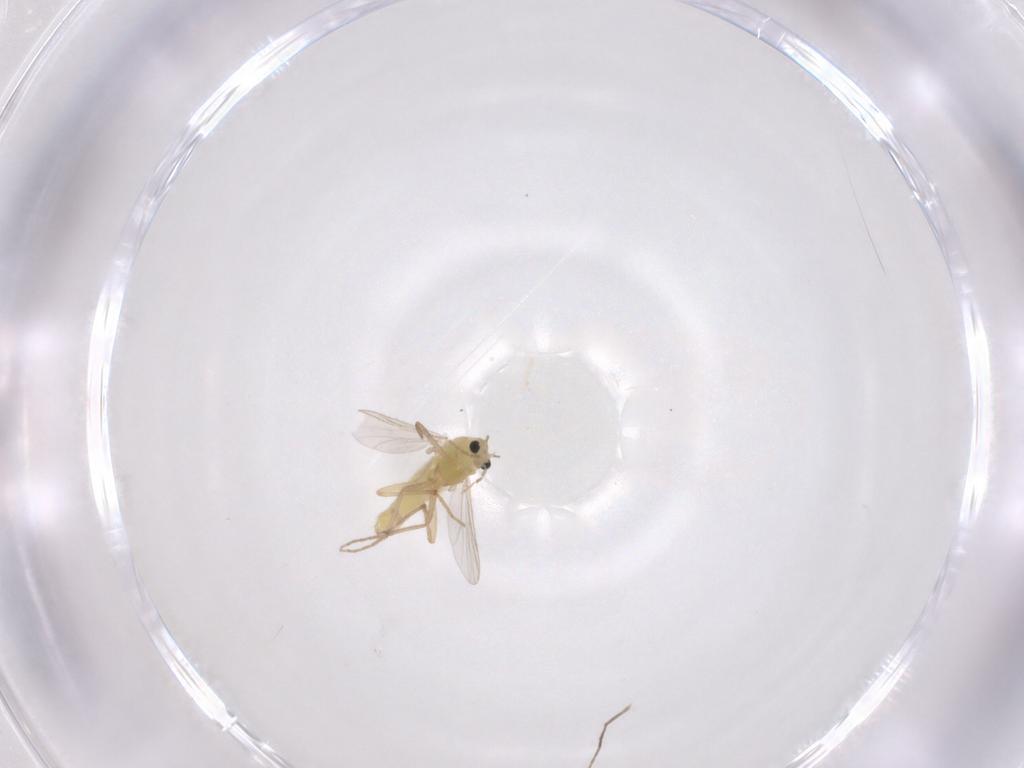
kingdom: Animalia
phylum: Arthropoda
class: Insecta
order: Diptera
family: Chironomidae
